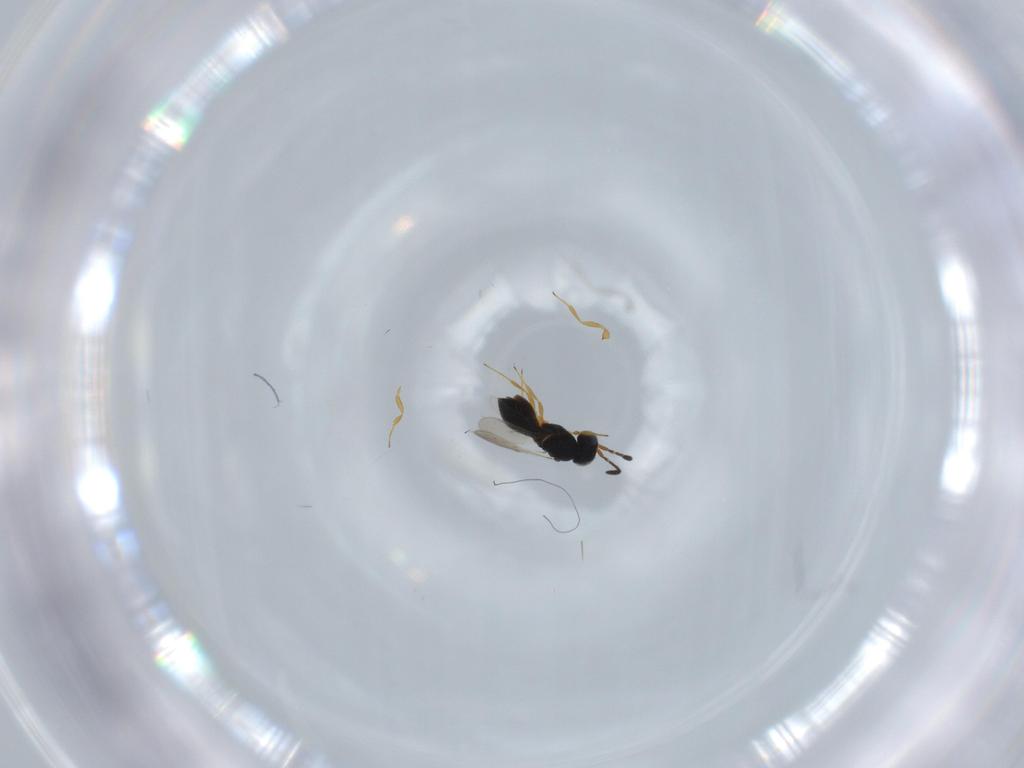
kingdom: Animalia
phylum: Arthropoda
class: Insecta
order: Hymenoptera
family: Scelionidae
